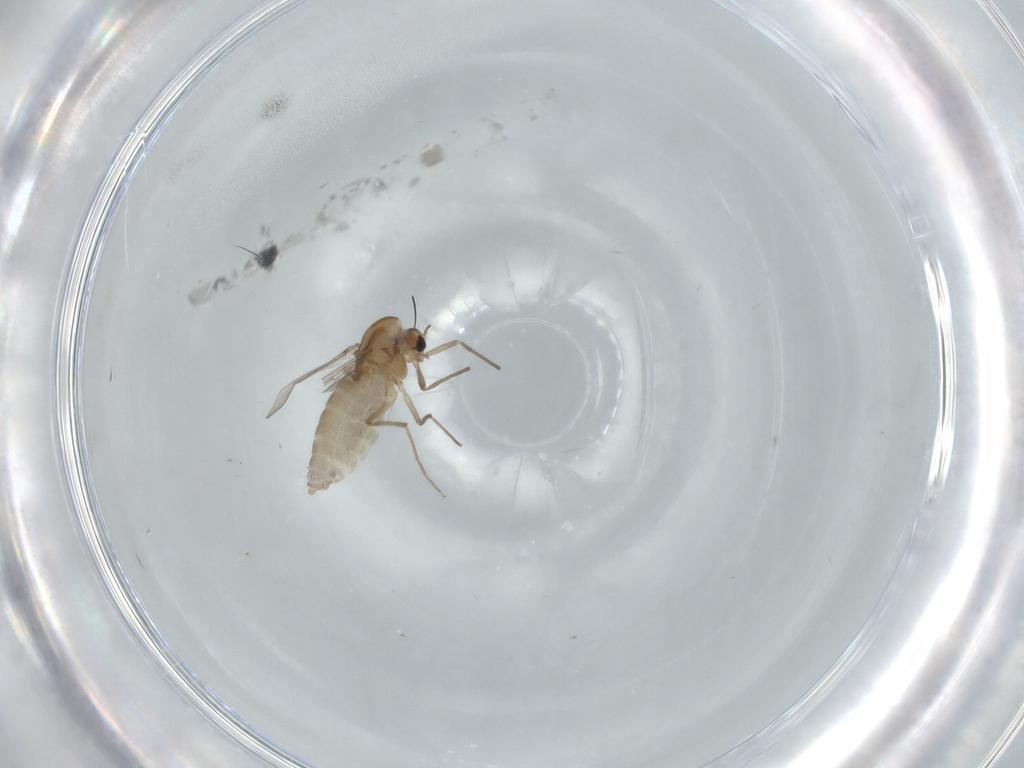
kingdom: Animalia
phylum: Arthropoda
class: Insecta
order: Diptera
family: Chironomidae
